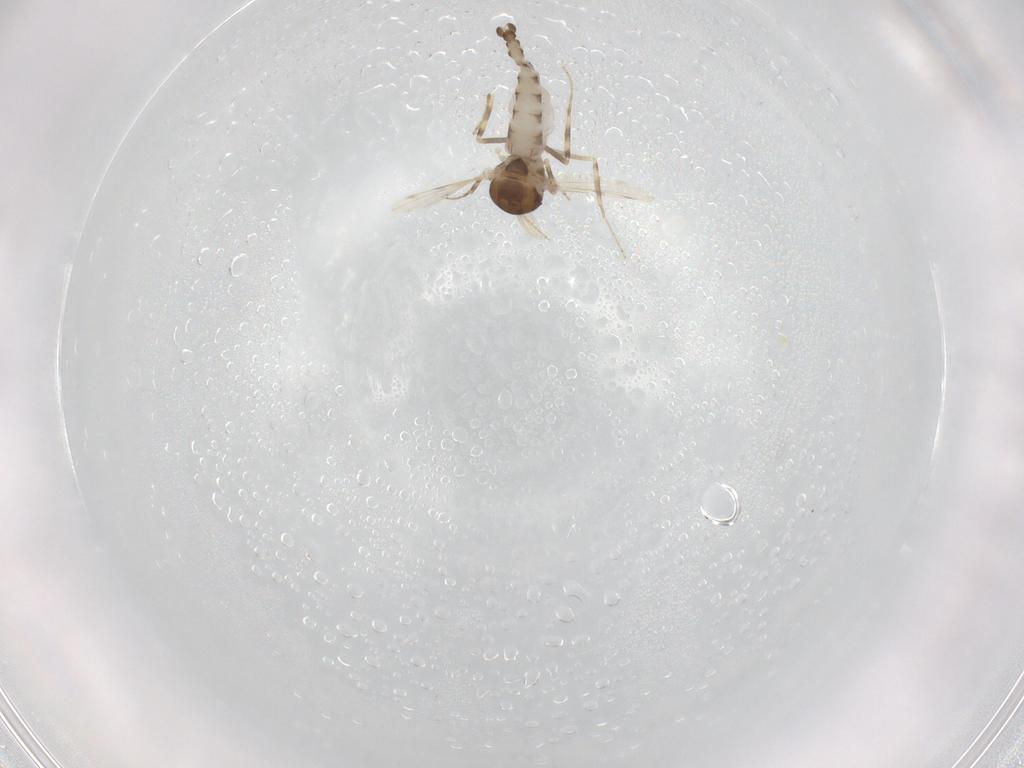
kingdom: Animalia
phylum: Arthropoda
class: Insecta
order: Diptera
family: Ceratopogonidae
